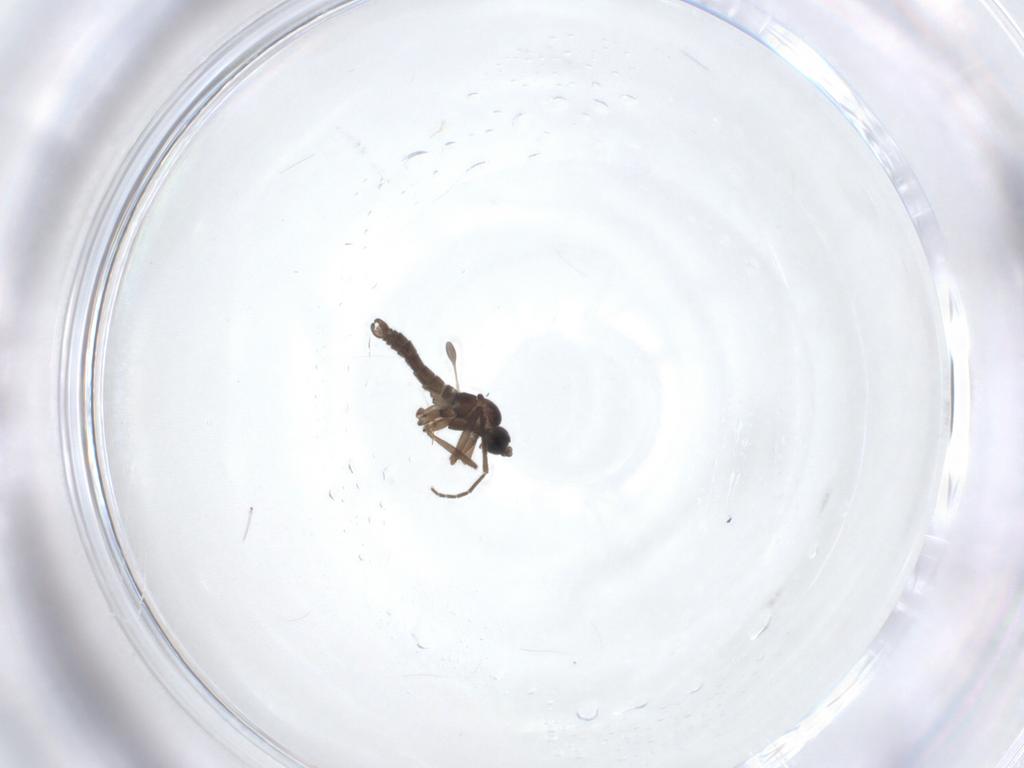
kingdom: Animalia
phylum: Arthropoda
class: Insecta
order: Diptera
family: Sciaridae
